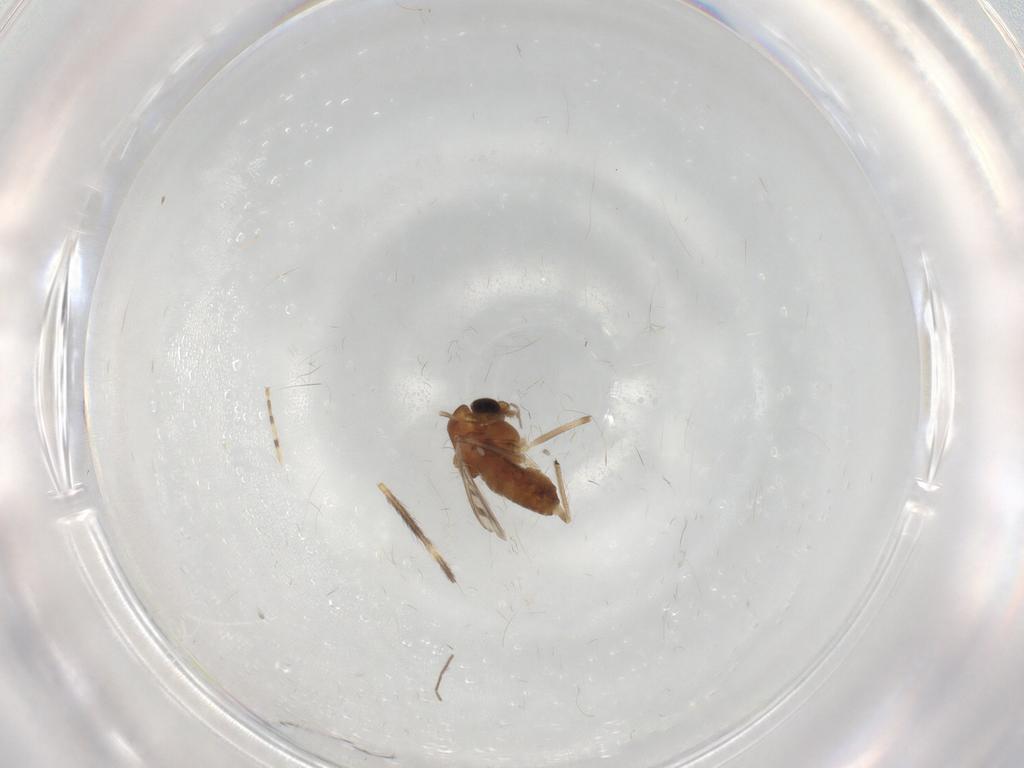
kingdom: Animalia
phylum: Arthropoda
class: Insecta
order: Diptera
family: Chironomidae
